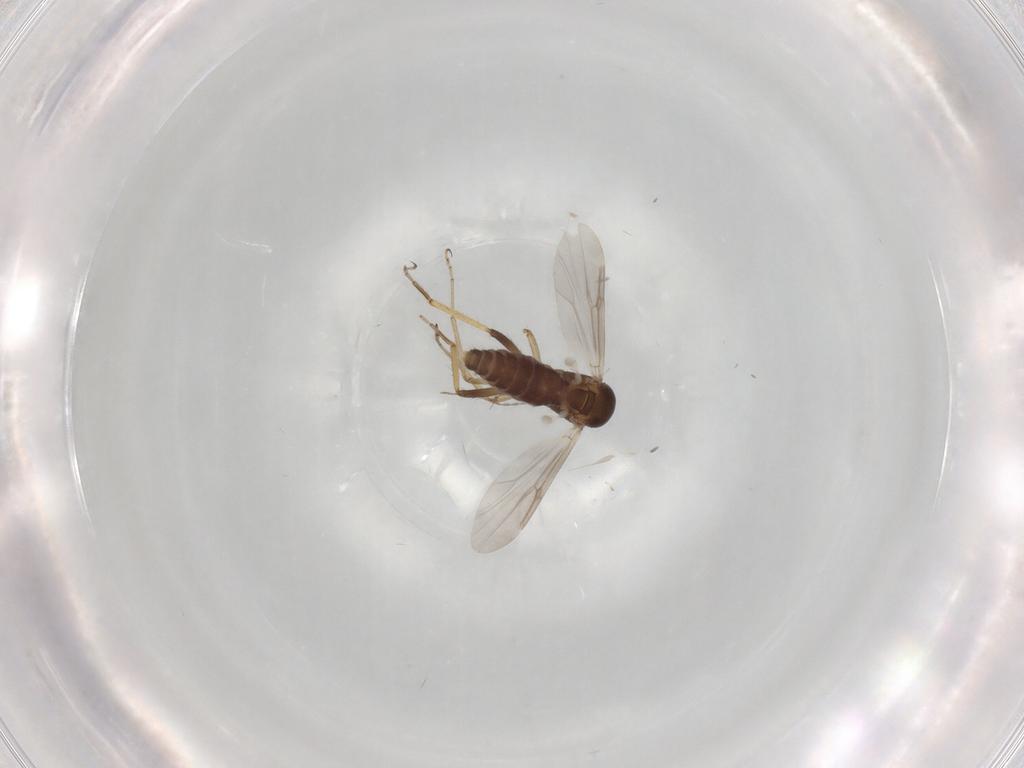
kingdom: Animalia
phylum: Arthropoda
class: Insecta
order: Diptera
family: Ceratopogonidae
